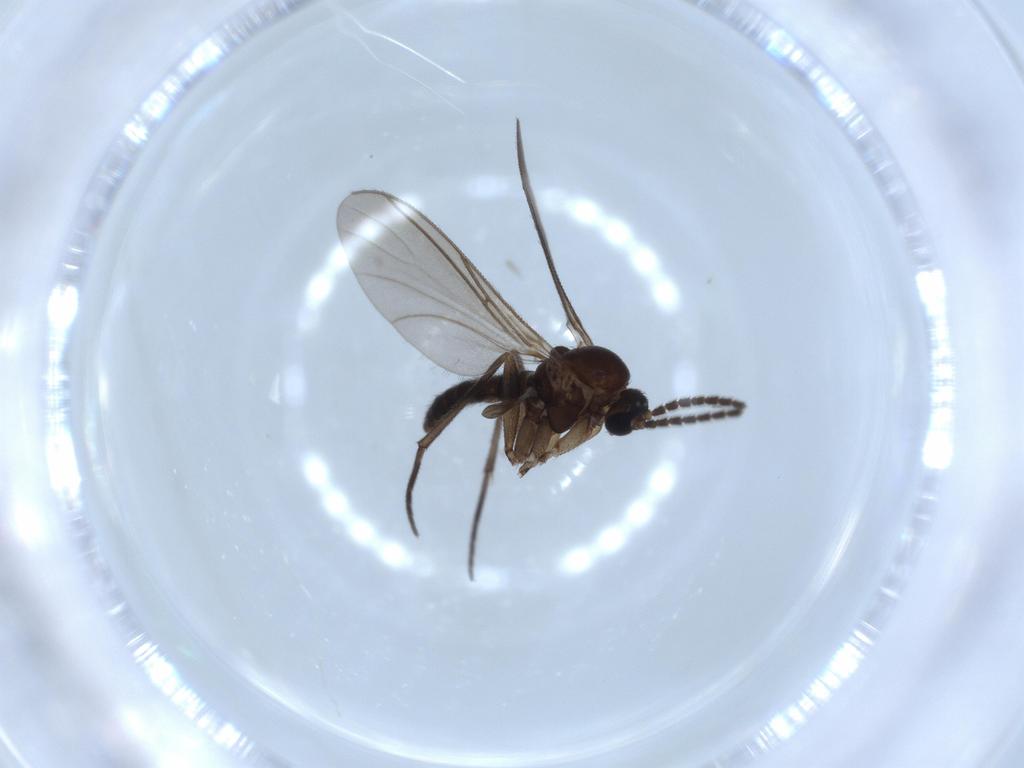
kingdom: Animalia
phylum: Arthropoda
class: Insecta
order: Diptera
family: Sciaridae
